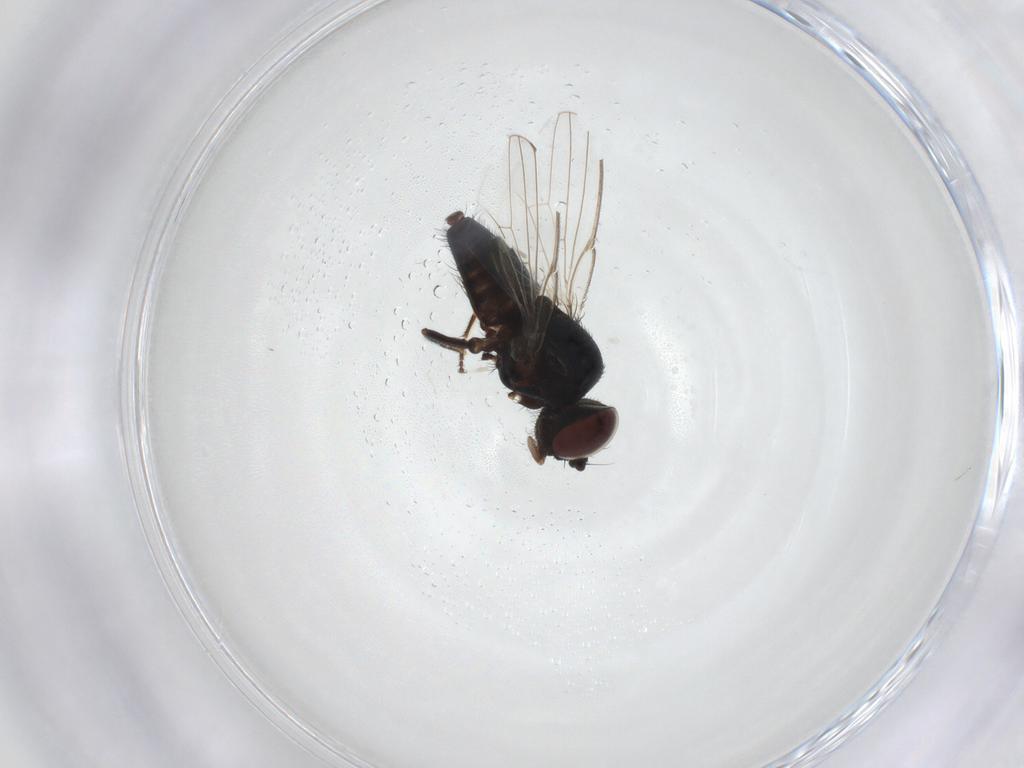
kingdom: Animalia
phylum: Arthropoda
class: Insecta
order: Diptera
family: Milichiidae
